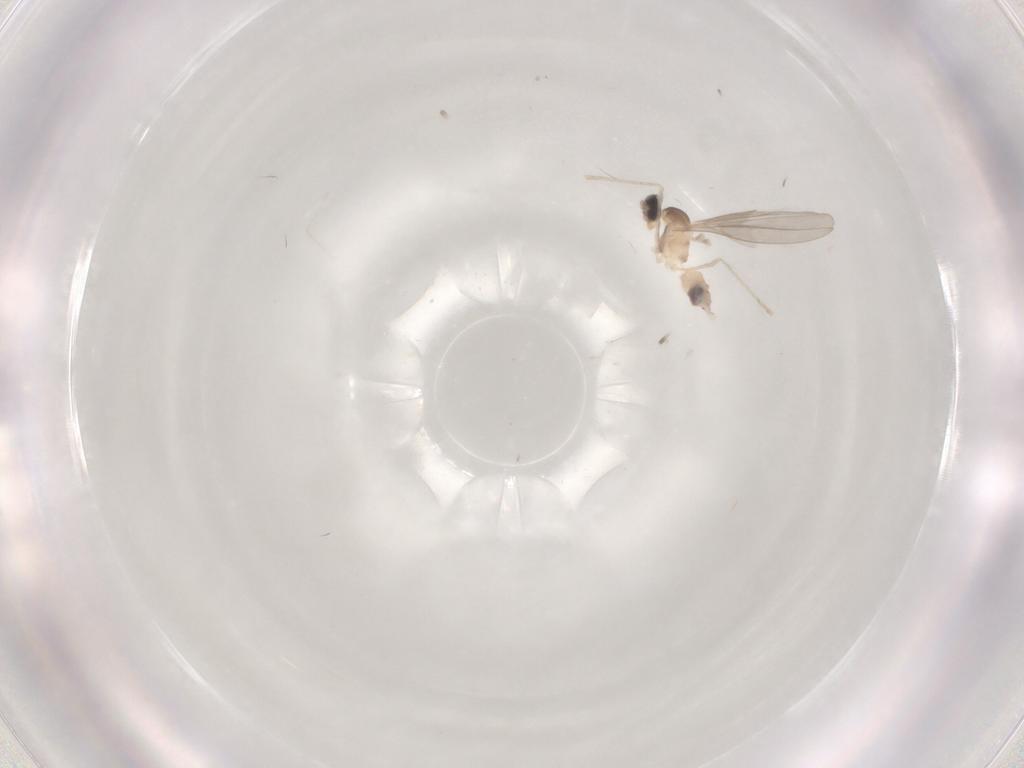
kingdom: Animalia
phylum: Arthropoda
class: Insecta
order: Diptera
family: Cecidomyiidae
